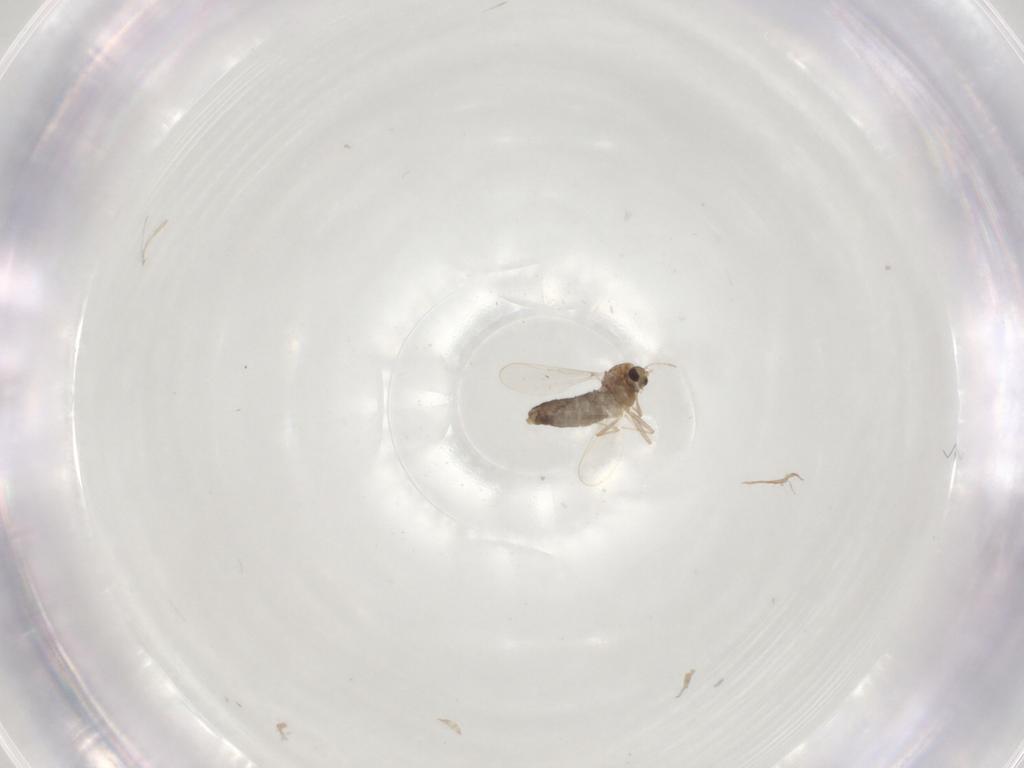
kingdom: Animalia
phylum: Arthropoda
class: Insecta
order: Diptera
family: Chironomidae
